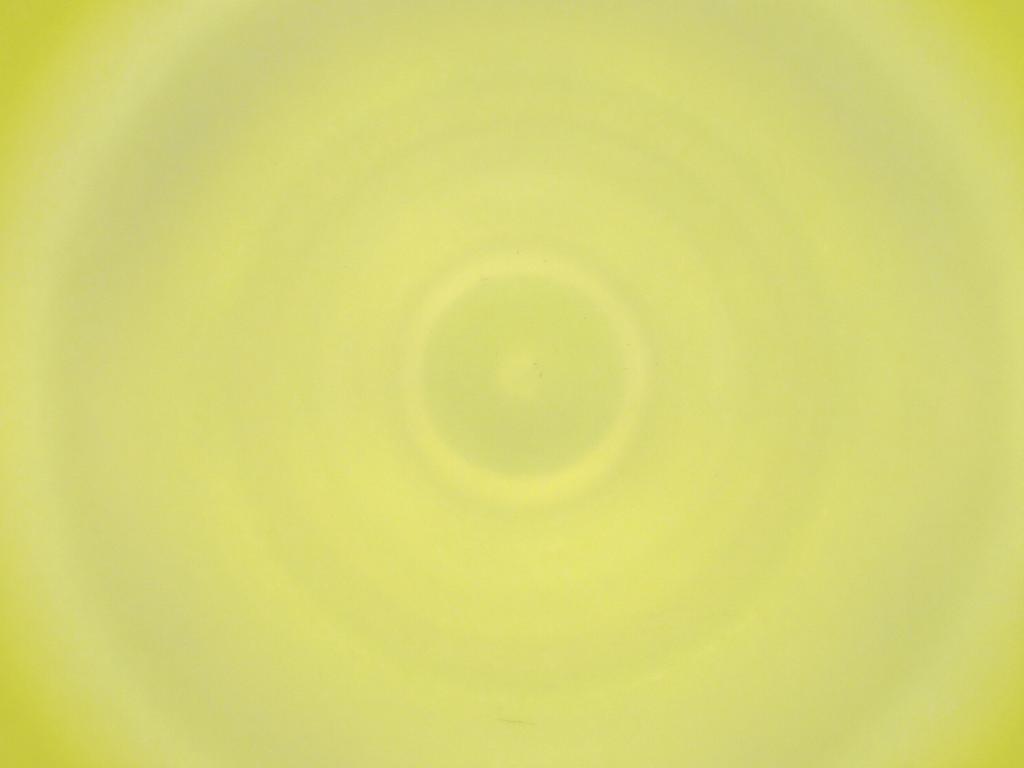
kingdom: Animalia
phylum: Arthropoda
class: Insecta
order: Diptera
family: Cecidomyiidae
